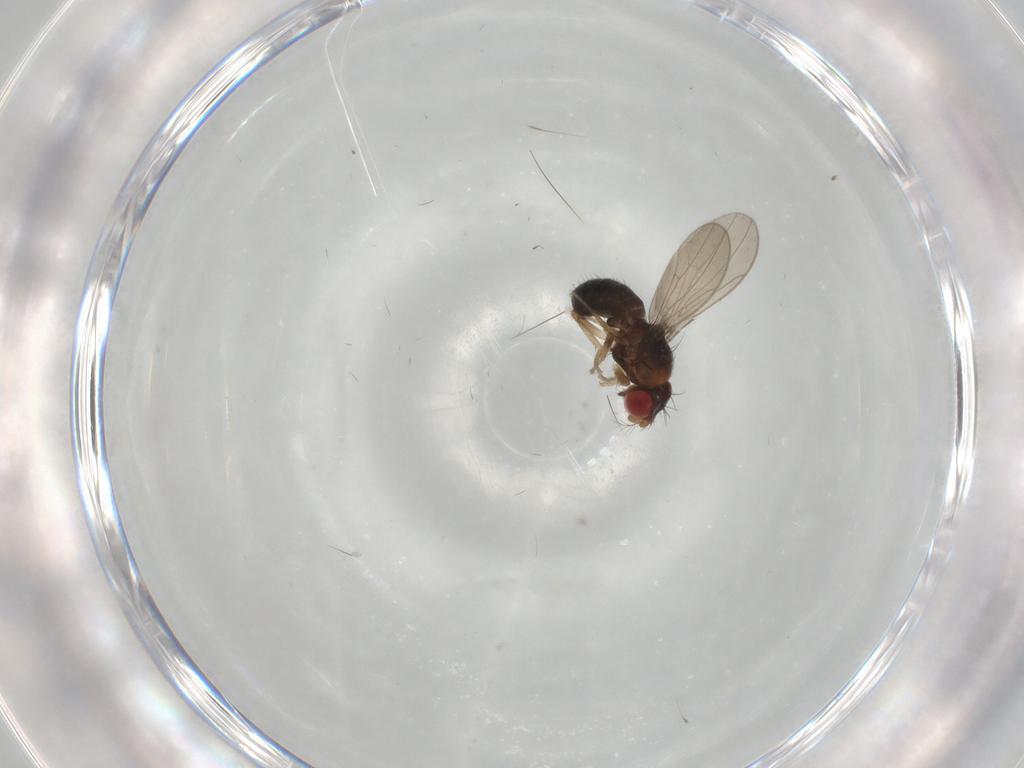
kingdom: Animalia
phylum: Arthropoda
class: Insecta
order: Diptera
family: Drosophilidae
